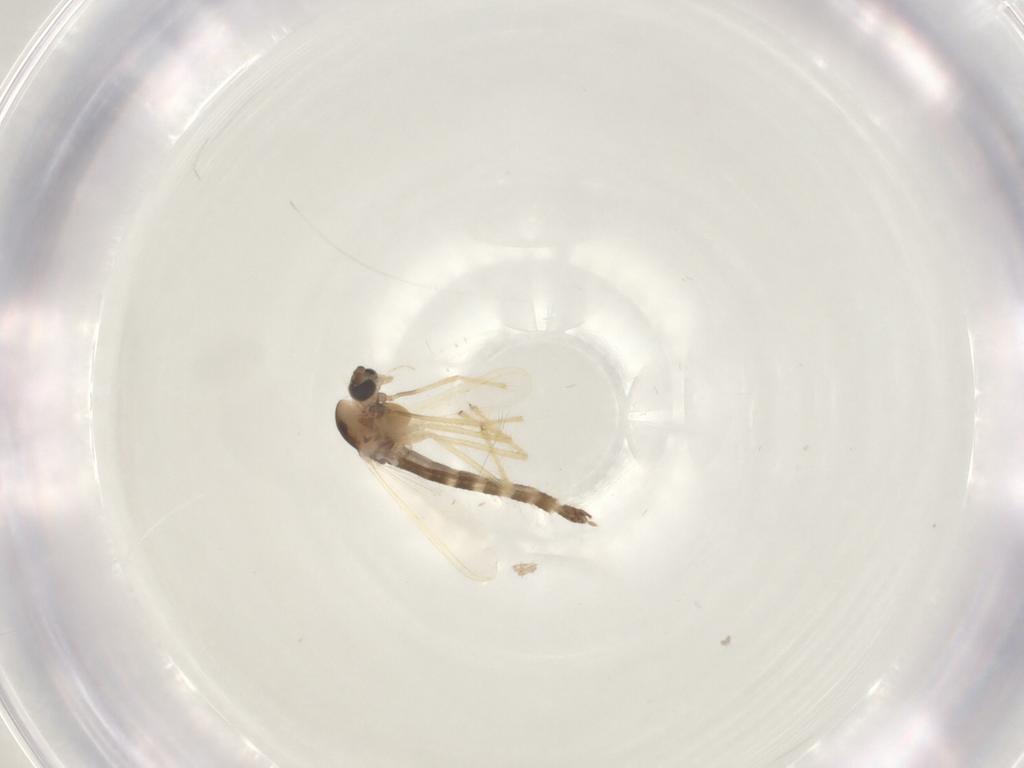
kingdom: Animalia
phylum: Arthropoda
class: Insecta
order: Diptera
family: Chironomidae
